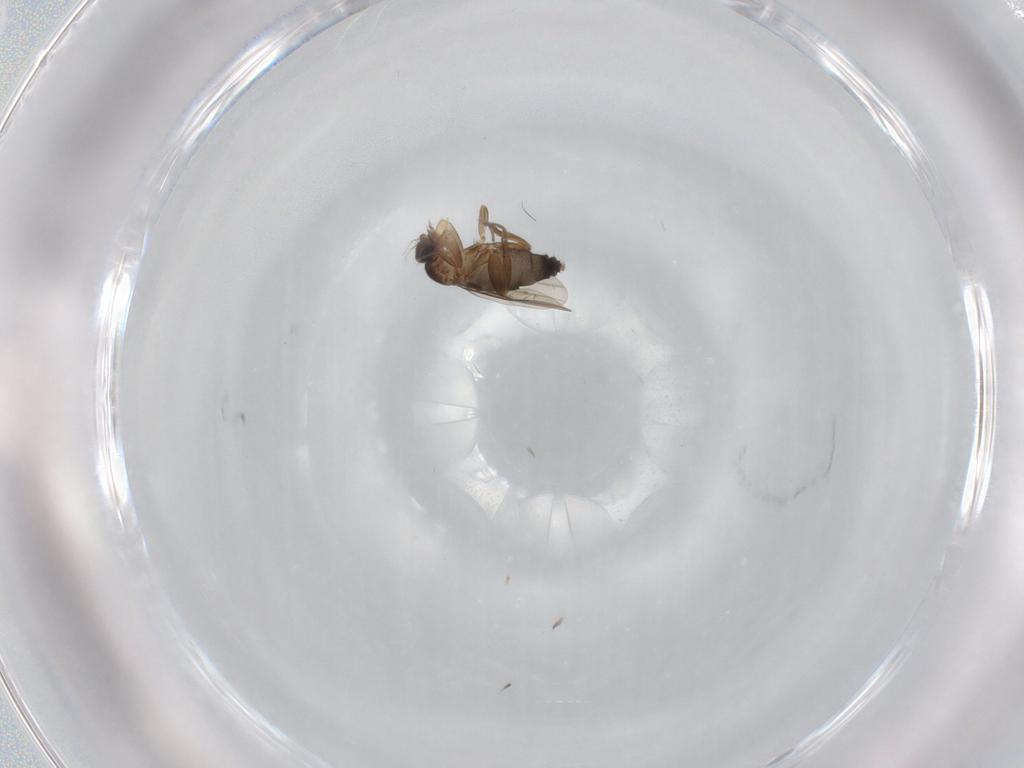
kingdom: Animalia
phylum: Arthropoda
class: Insecta
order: Diptera
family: Phoridae
